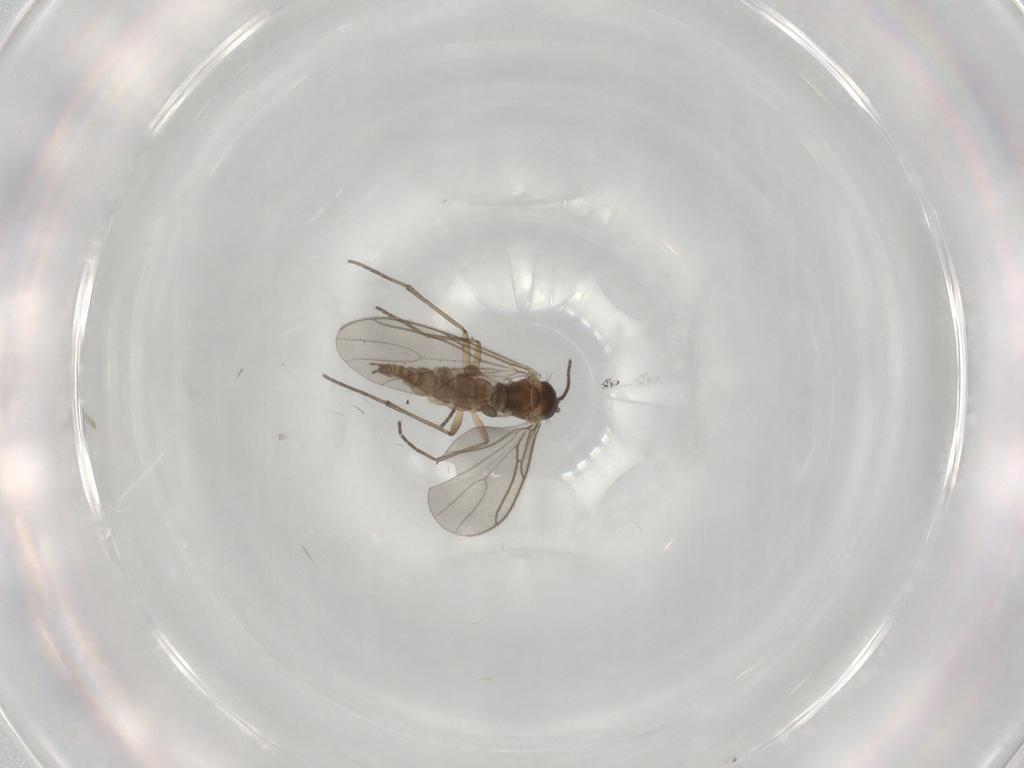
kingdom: Animalia
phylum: Arthropoda
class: Insecta
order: Diptera
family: Sciaridae
